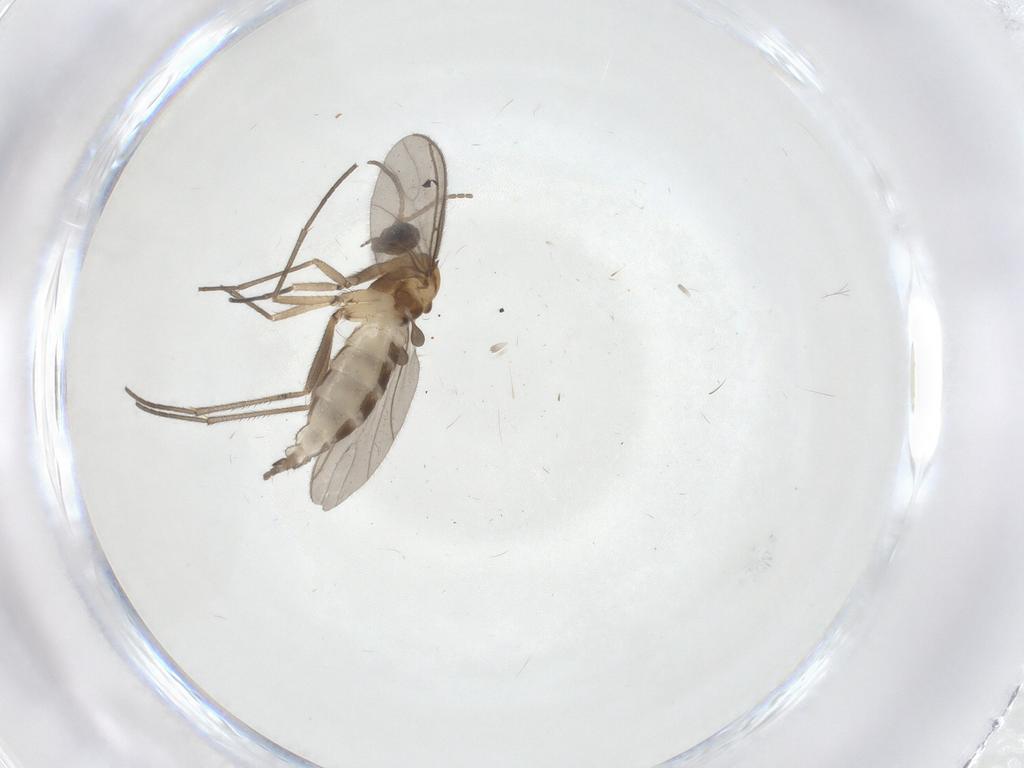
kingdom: Animalia
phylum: Arthropoda
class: Insecta
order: Diptera
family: Sciaridae
